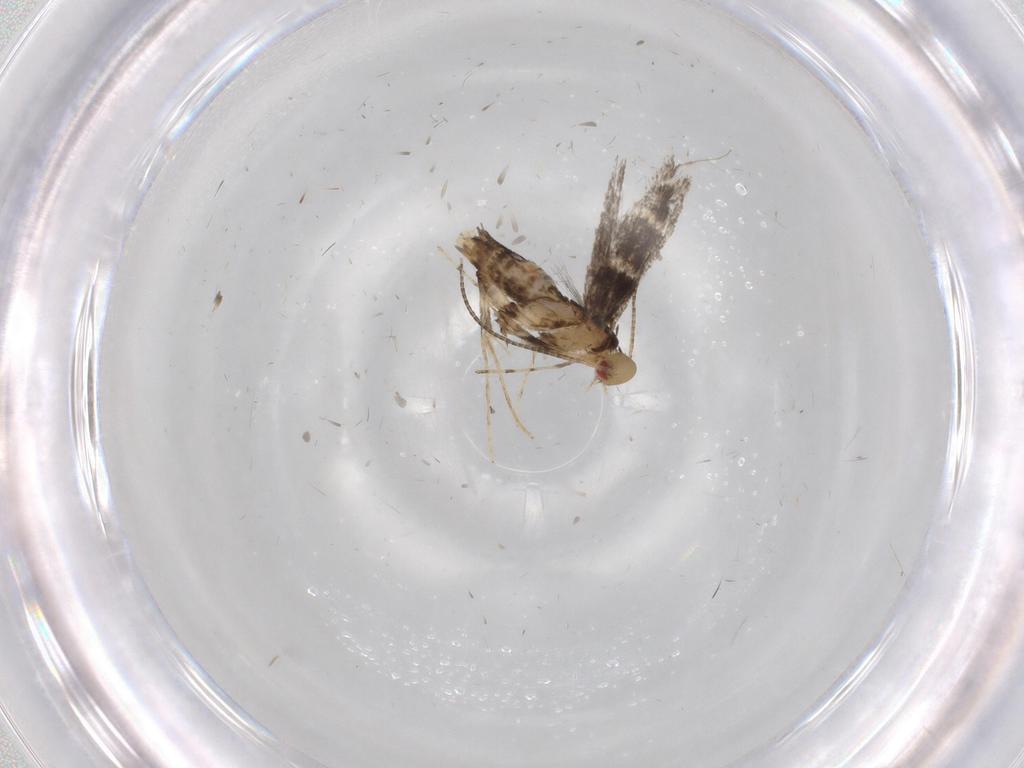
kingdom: Animalia
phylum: Arthropoda
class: Insecta
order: Lepidoptera
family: Gracillariidae
